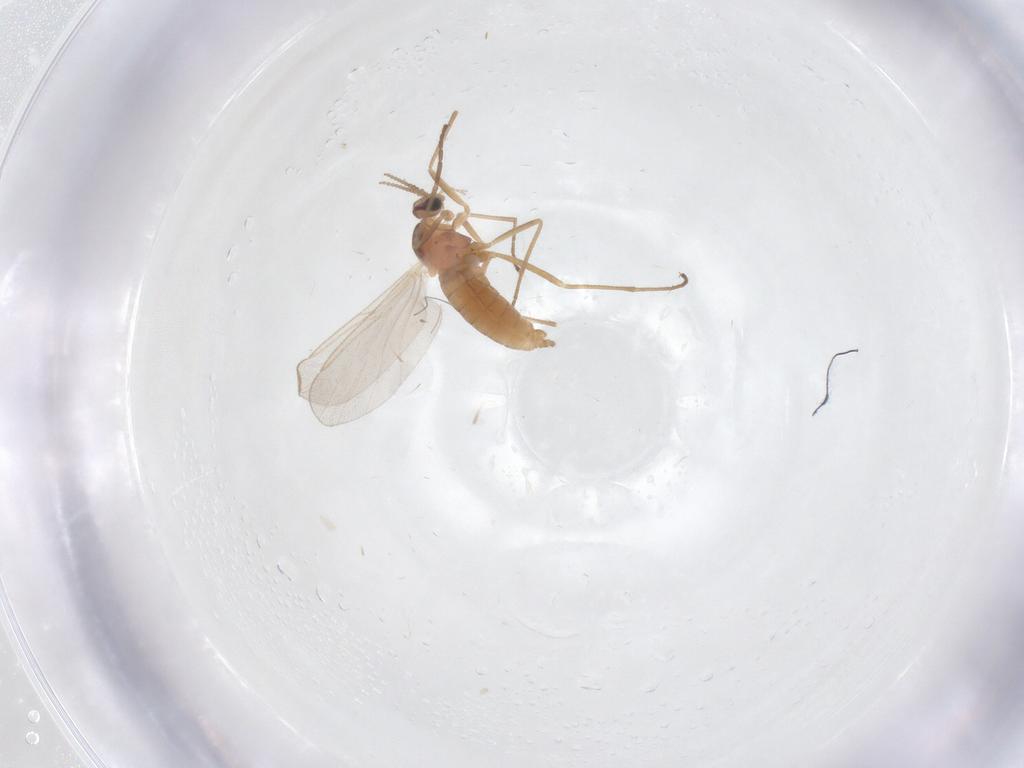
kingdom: Animalia
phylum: Arthropoda
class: Insecta
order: Diptera
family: Cecidomyiidae
